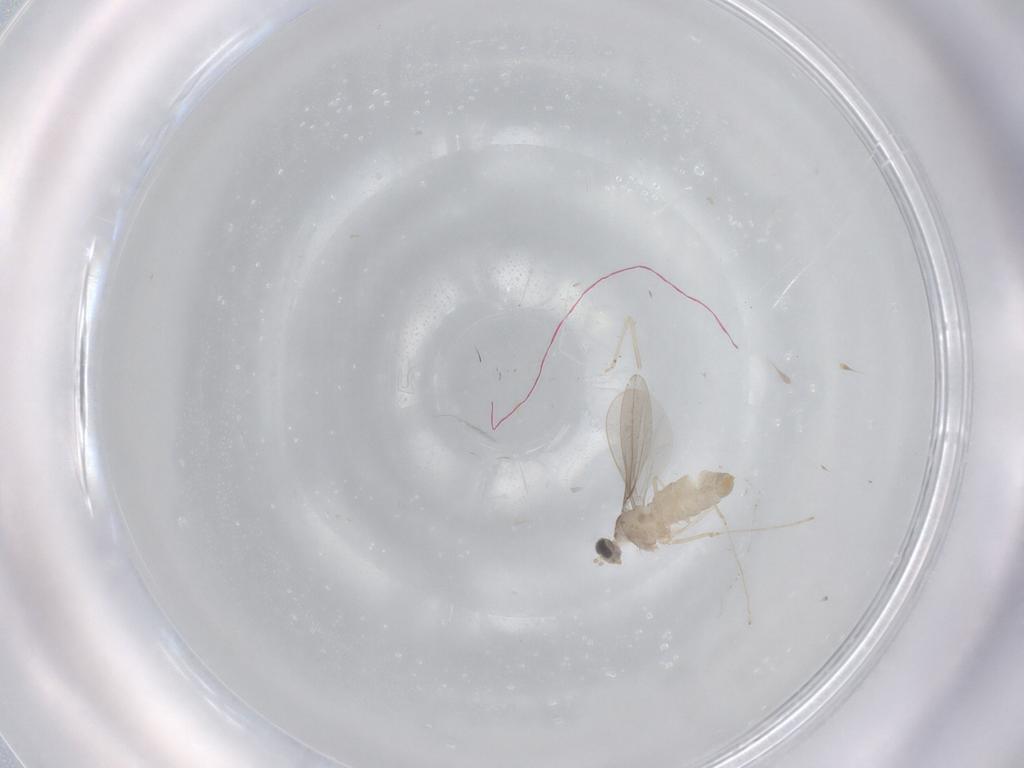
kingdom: Animalia
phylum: Arthropoda
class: Insecta
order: Diptera
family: Cecidomyiidae
